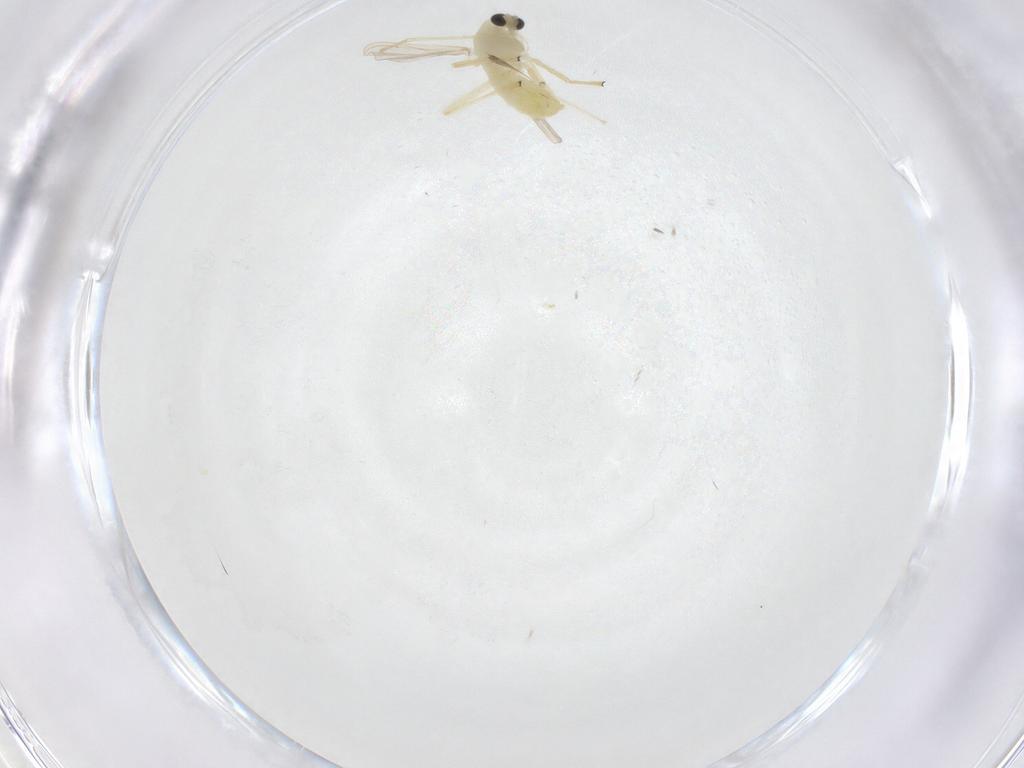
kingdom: Animalia
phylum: Arthropoda
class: Insecta
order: Diptera
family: Chironomidae
